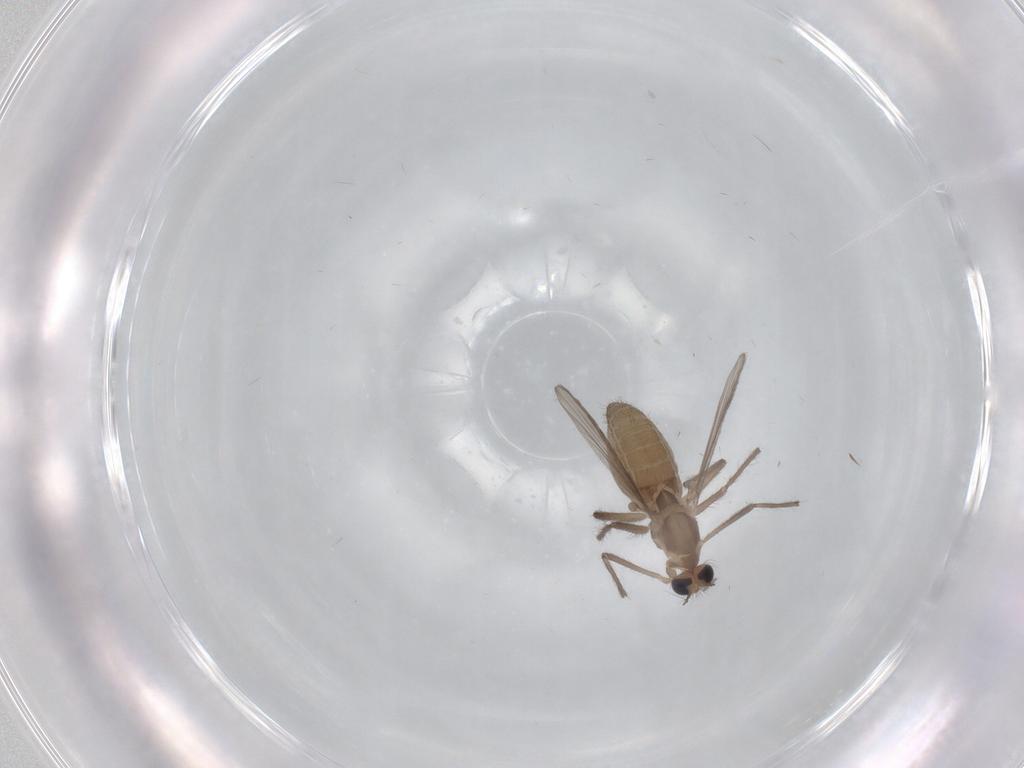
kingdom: Animalia
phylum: Arthropoda
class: Insecta
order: Diptera
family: Chironomidae
